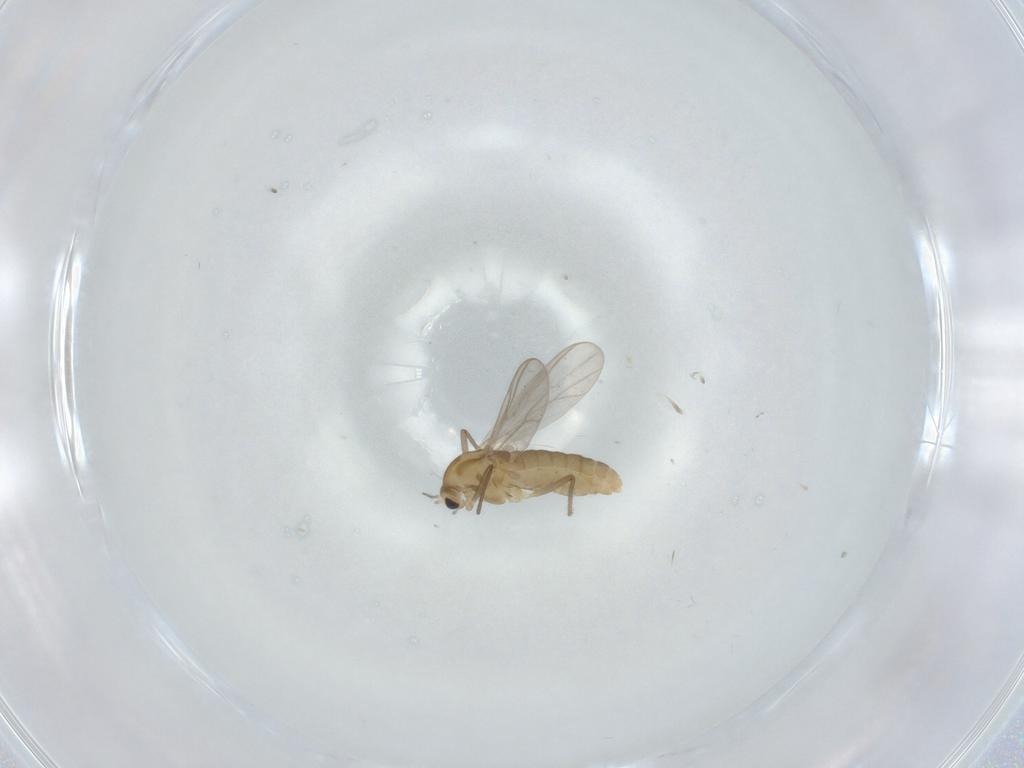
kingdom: Animalia
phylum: Arthropoda
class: Insecta
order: Diptera
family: Chironomidae
